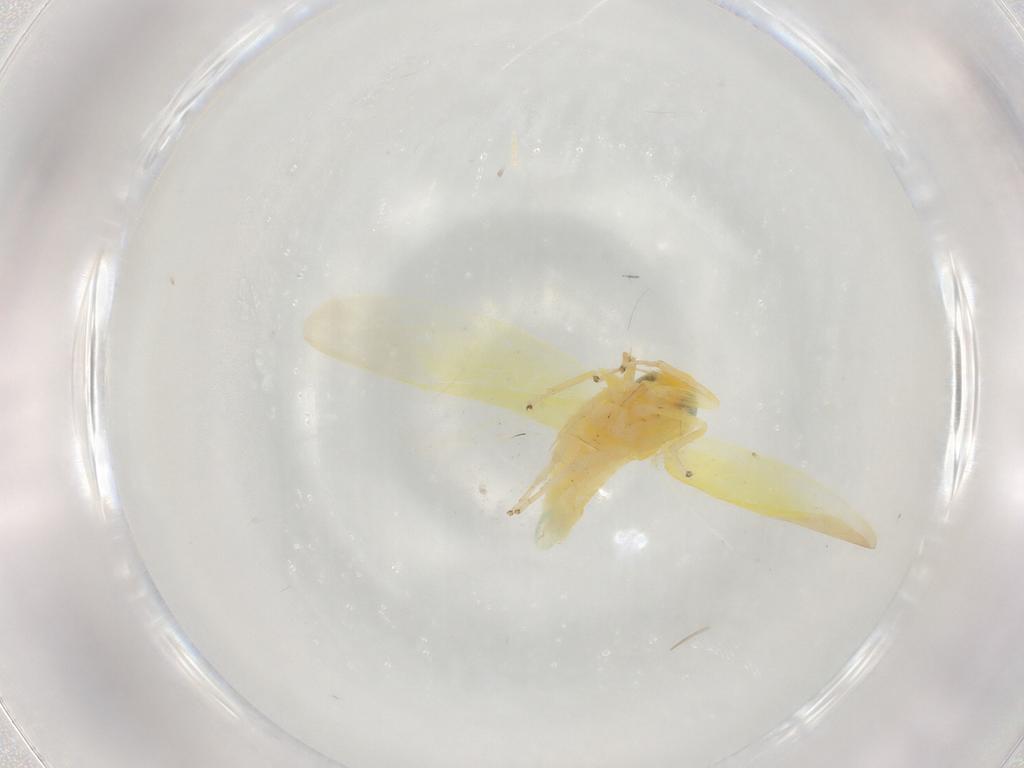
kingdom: Animalia
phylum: Arthropoda
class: Insecta
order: Hemiptera
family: Cicadellidae
